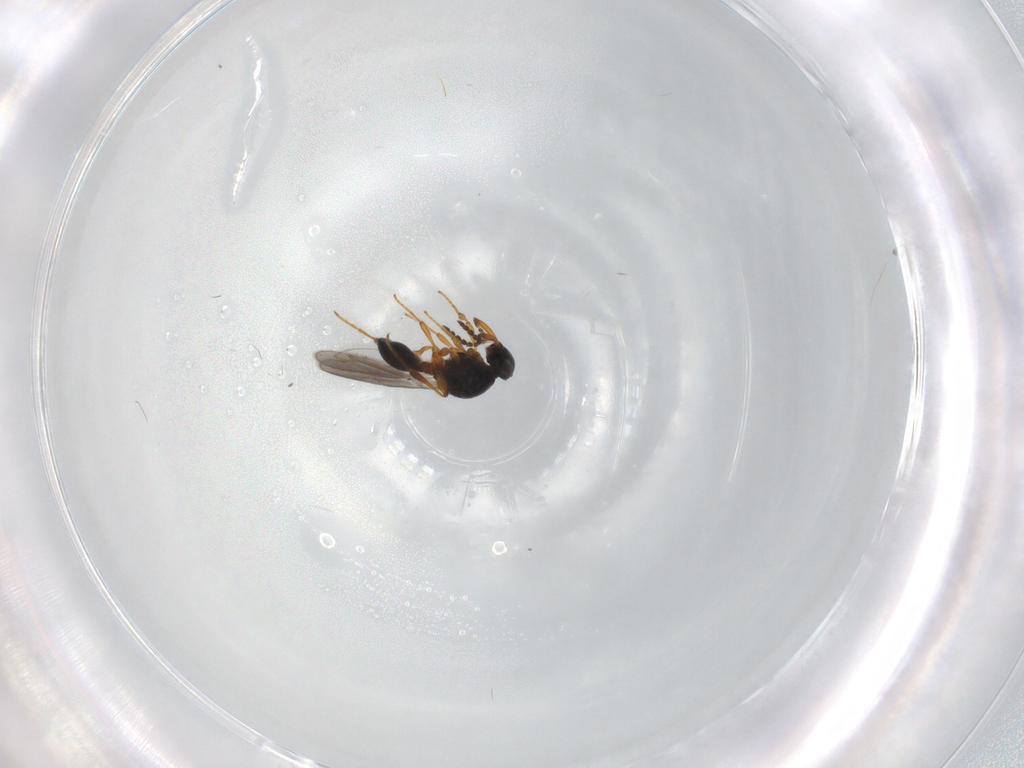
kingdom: Animalia
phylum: Arthropoda
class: Insecta
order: Hymenoptera
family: Platygastridae
